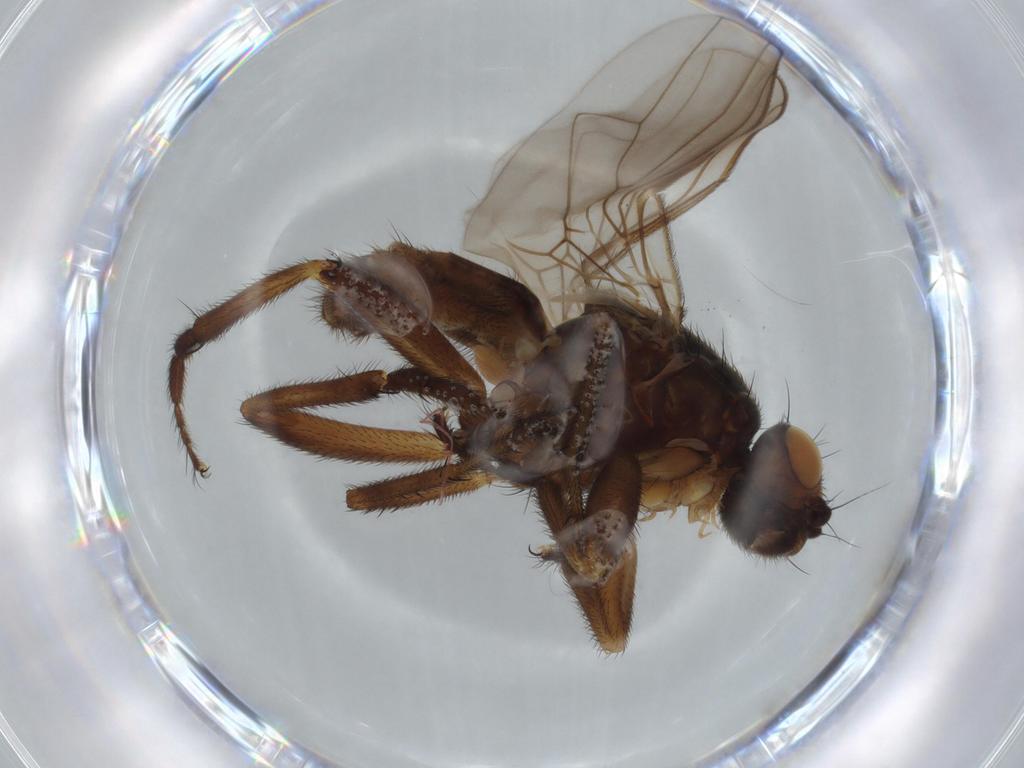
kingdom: Animalia
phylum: Arthropoda
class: Insecta
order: Diptera
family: Sphaeroceridae
